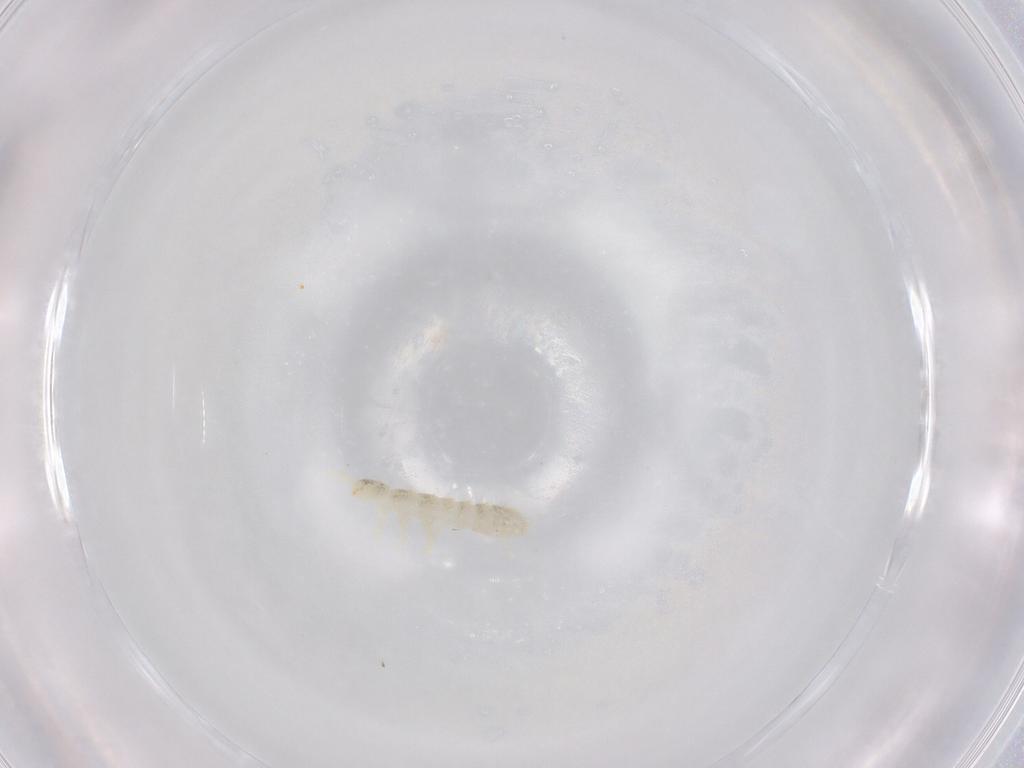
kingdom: Animalia
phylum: Arthropoda
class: Collembola
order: Entomobryomorpha
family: Isotomidae
